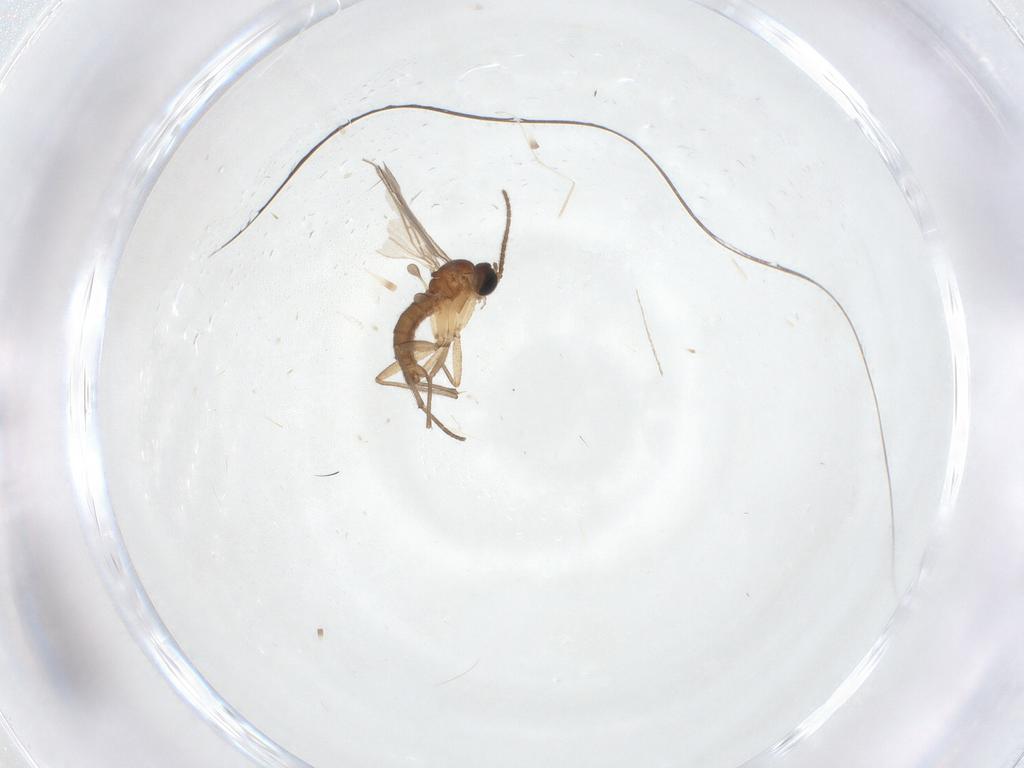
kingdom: Animalia
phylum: Arthropoda
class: Insecta
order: Diptera
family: Sciaridae
